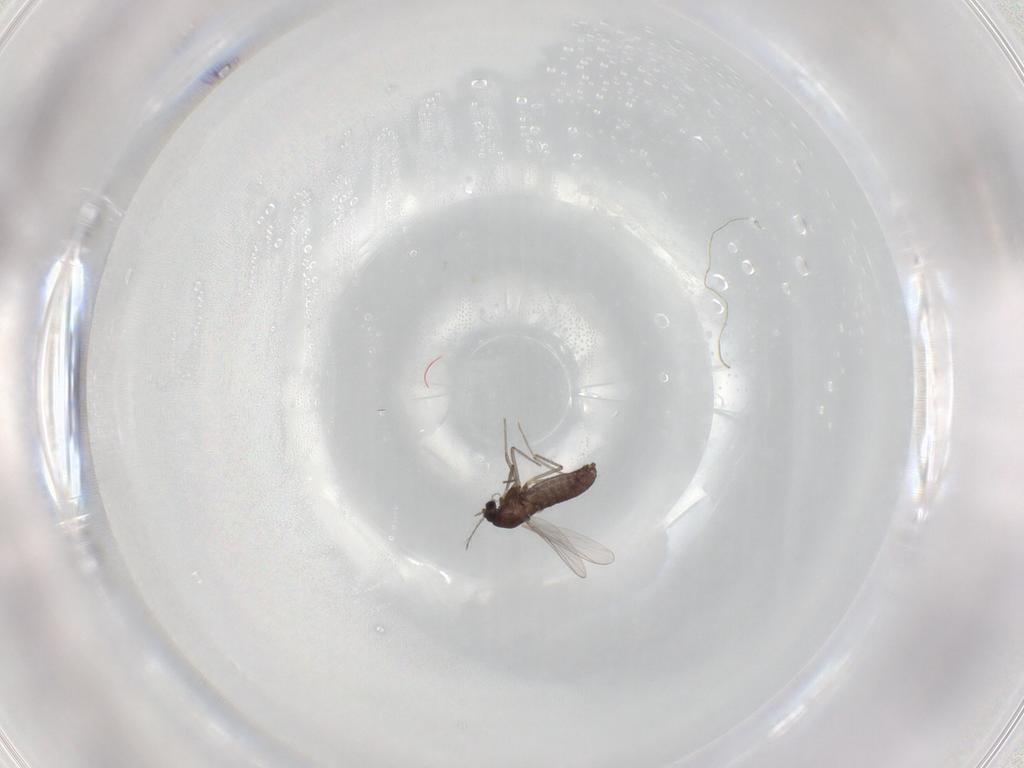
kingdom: Animalia
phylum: Arthropoda
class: Insecta
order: Diptera
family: Chironomidae
